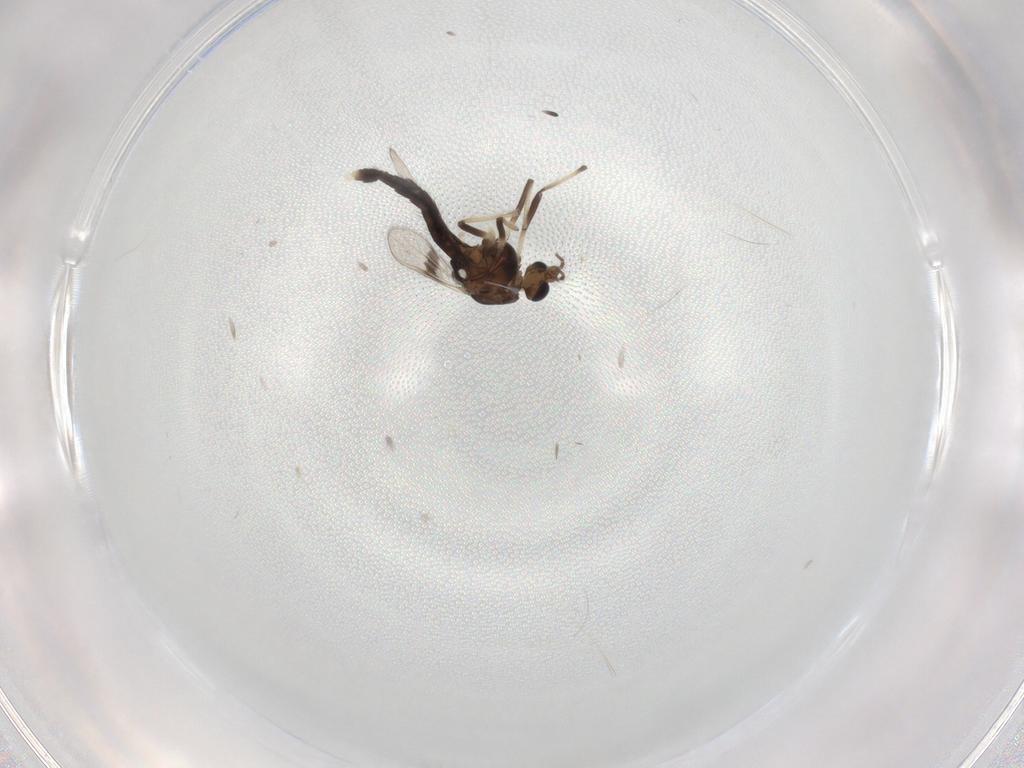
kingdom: Animalia
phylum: Arthropoda
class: Insecta
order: Diptera
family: Chironomidae
